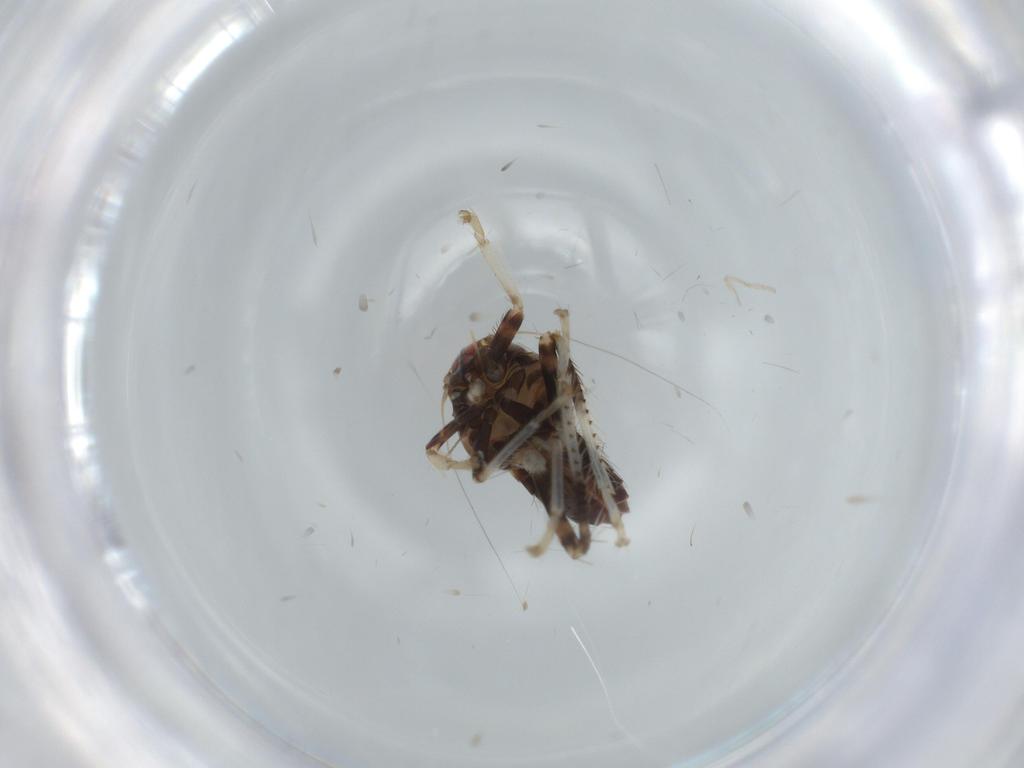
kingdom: Animalia
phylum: Arthropoda
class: Insecta
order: Hemiptera
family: Cicadellidae
